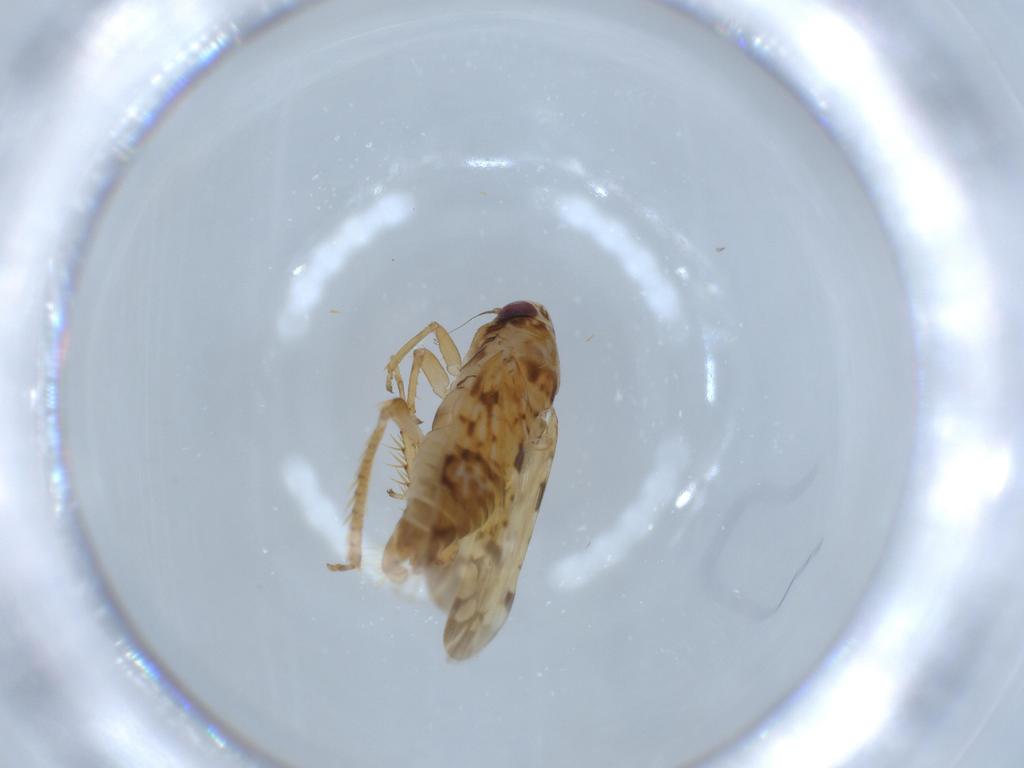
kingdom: Animalia
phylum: Arthropoda
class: Insecta
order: Hemiptera
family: Cicadellidae
